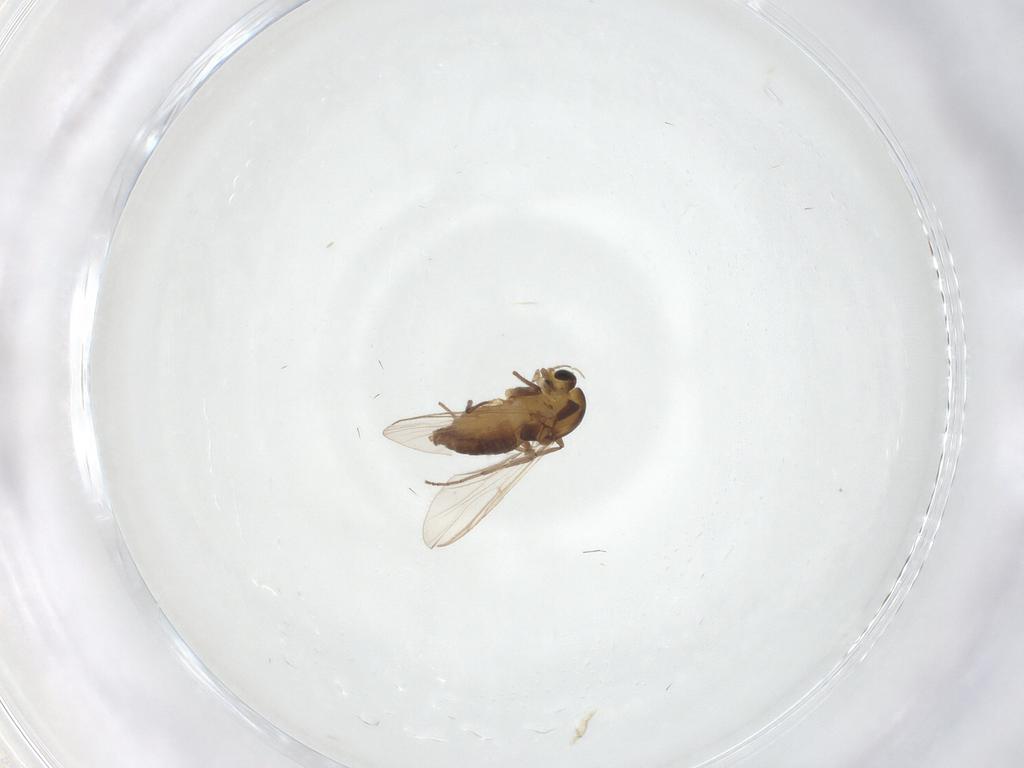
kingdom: Animalia
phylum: Arthropoda
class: Insecta
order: Diptera
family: Chironomidae
